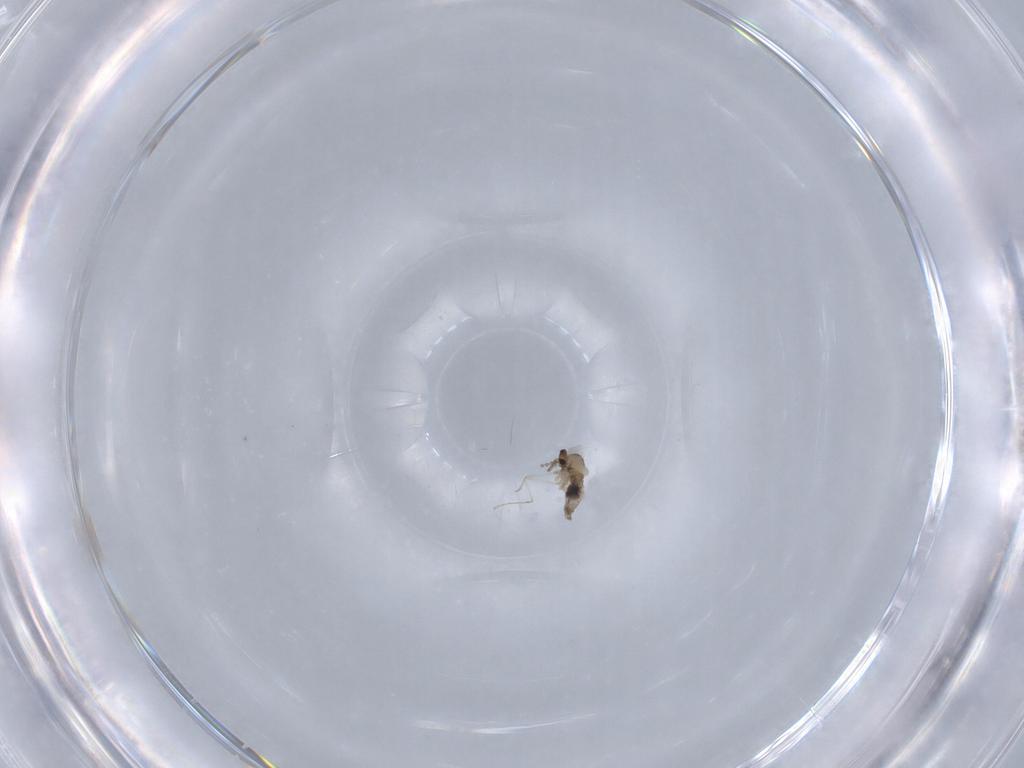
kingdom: Animalia
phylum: Arthropoda
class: Insecta
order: Diptera
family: Cecidomyiidae
